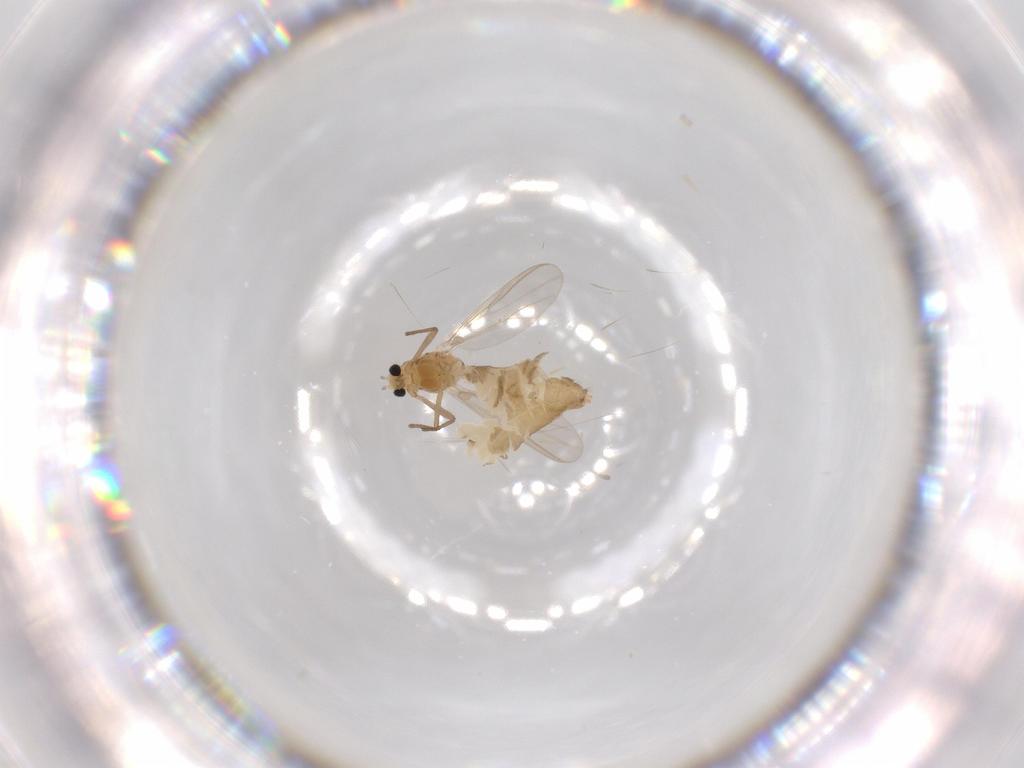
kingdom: Animalia
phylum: Arthropoda
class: Insecta
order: Diptera
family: Chironomidae
